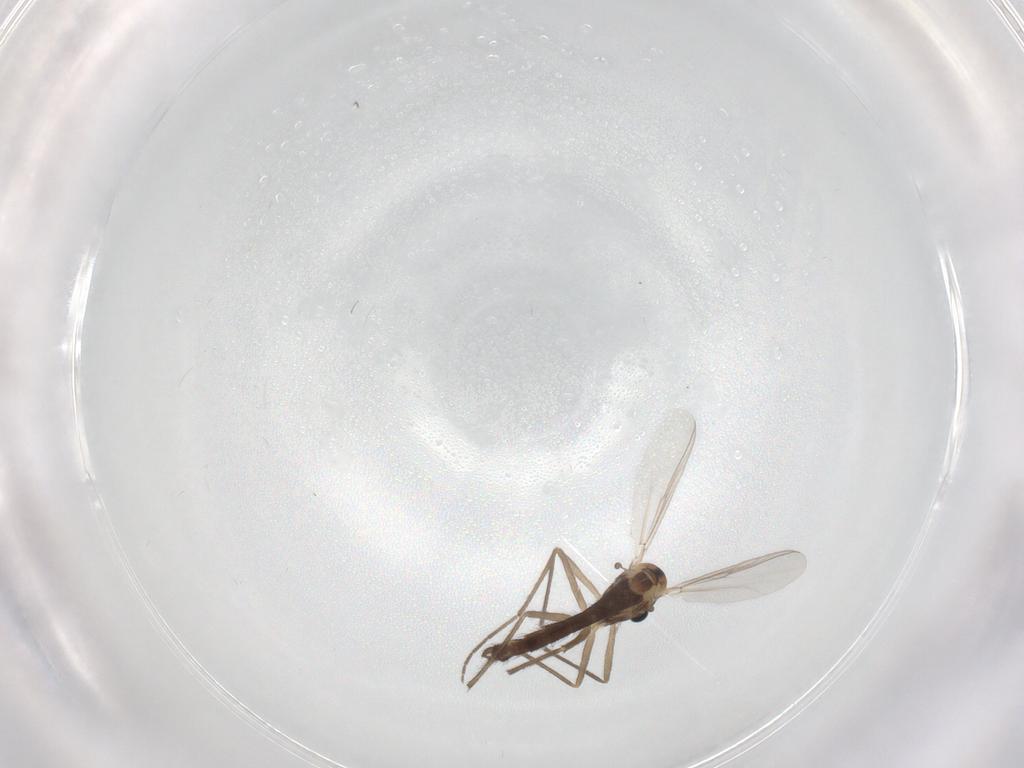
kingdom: Animalia
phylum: Arthropoda
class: Insecta
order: Diptera
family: Chironomidae
